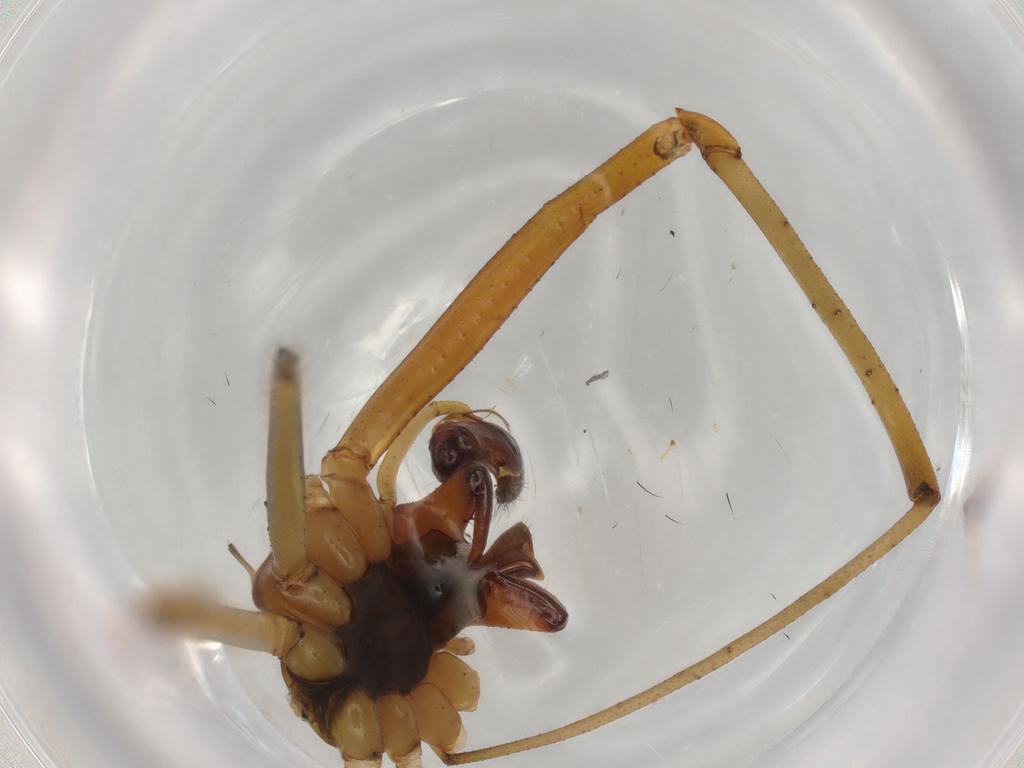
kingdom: Animalia
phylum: Arthropoda
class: Arachnida
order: Araneae
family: Linyphiidae
